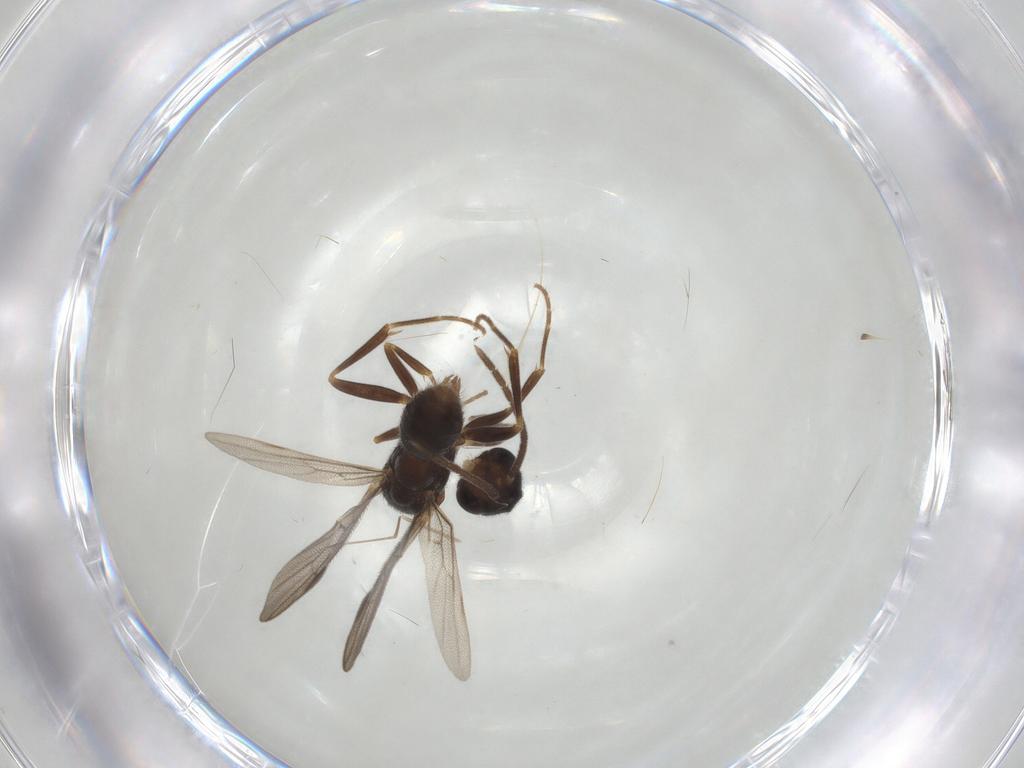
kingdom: Animalia
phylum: Arthropoda
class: Insecta
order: Hymenoptera
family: Formicidae
